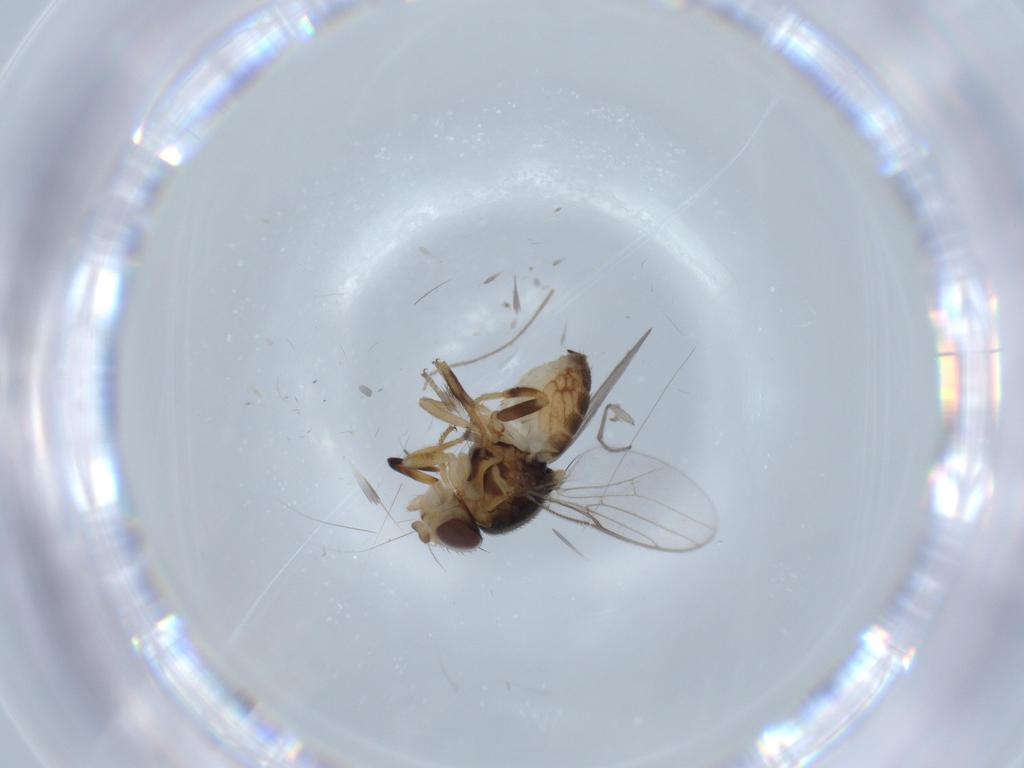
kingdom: Animalia
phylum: Arthropoda
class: Insecta
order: Diptera
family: Chloropidae
